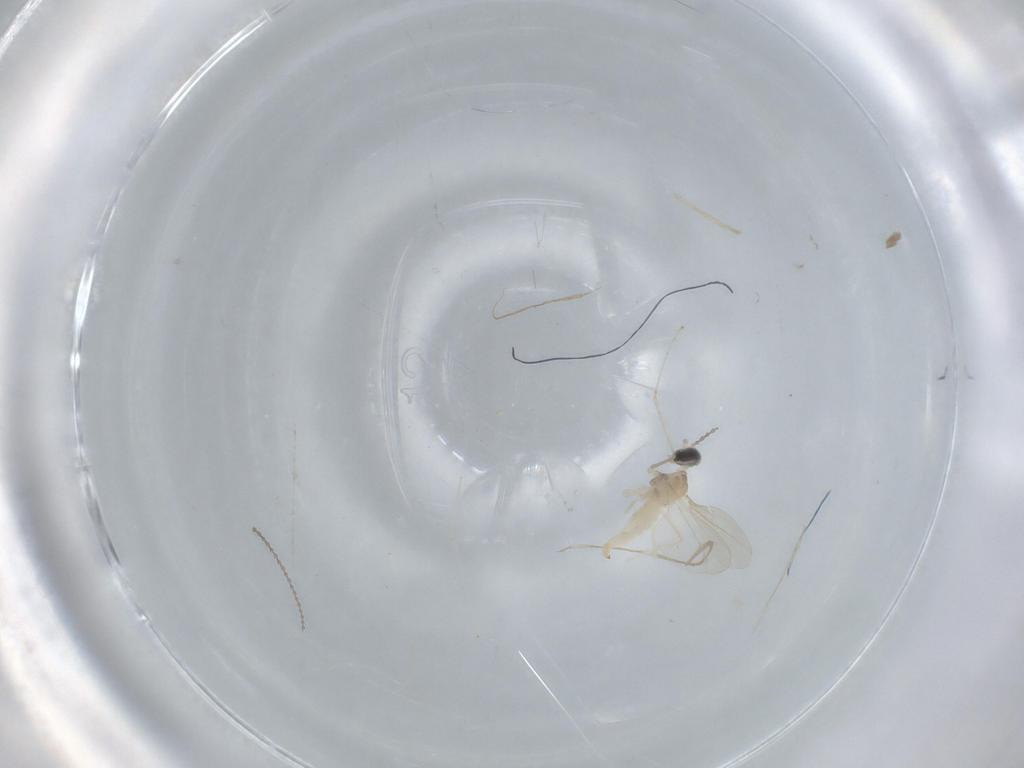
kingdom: Animalia
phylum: Arthropoda
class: Insecta
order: Diptera
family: Cecidomyiidae
